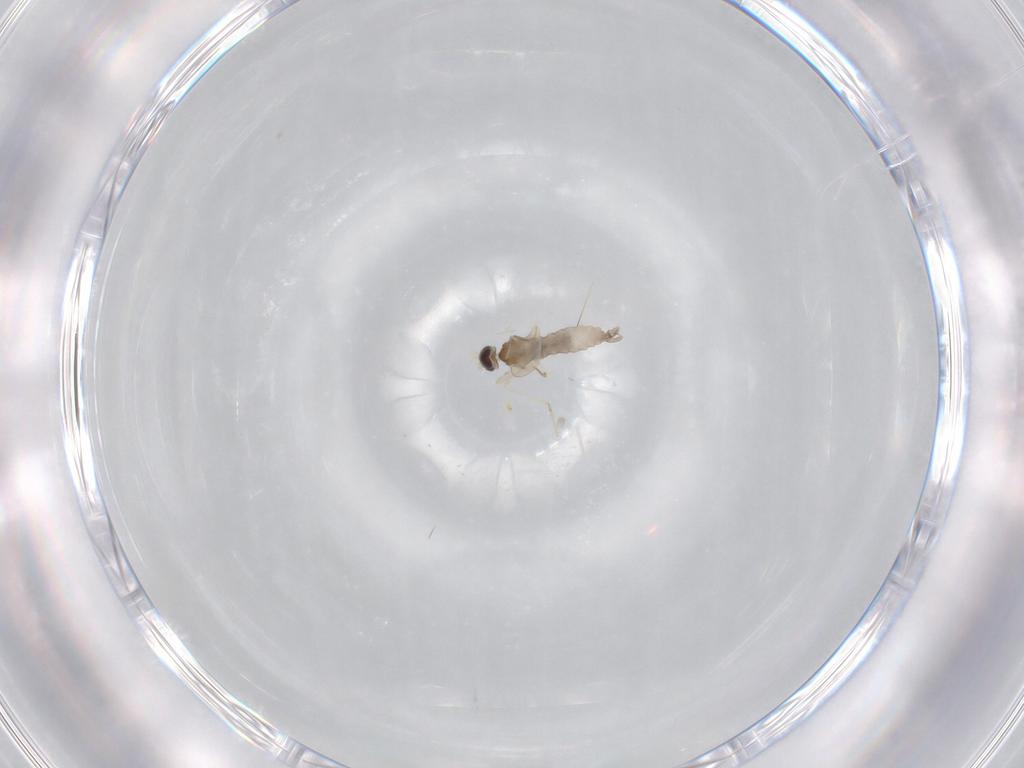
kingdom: Animalia
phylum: Arthropoda
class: Insecta
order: Diptera
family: Cecidomyiidae
